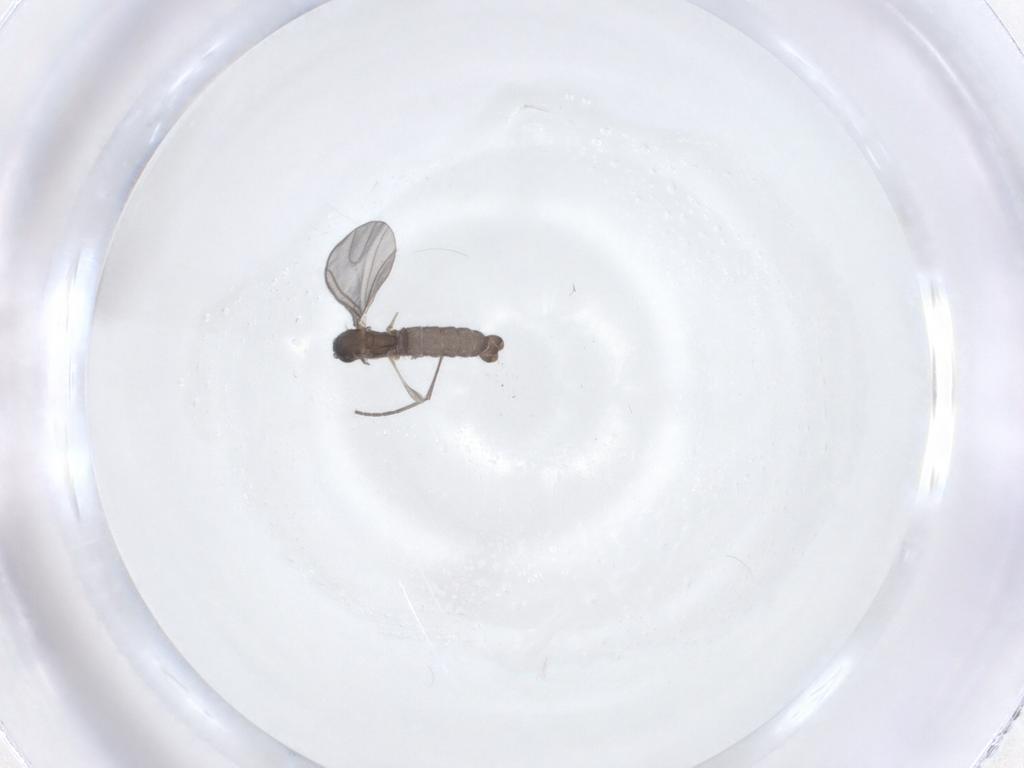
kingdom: Animalia
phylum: Arthropoda
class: Insecta
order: Diptera
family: Sciaridae
